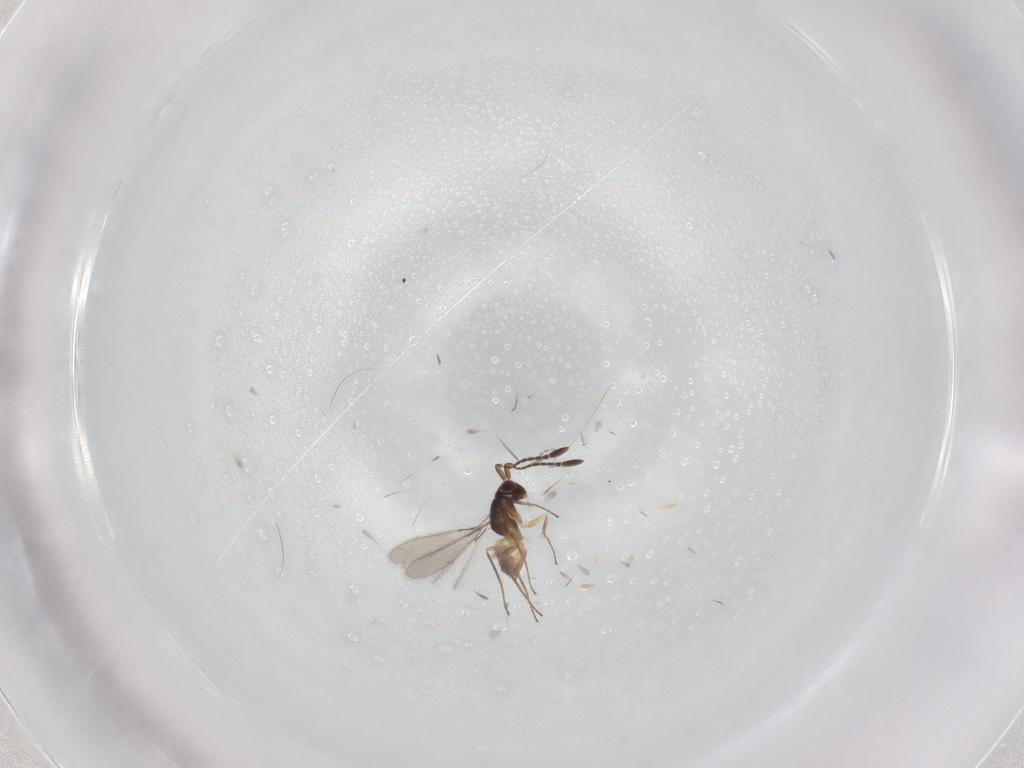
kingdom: Animalia
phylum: Arthropoda
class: Insecta
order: Hymenoptera
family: Mymaridae
